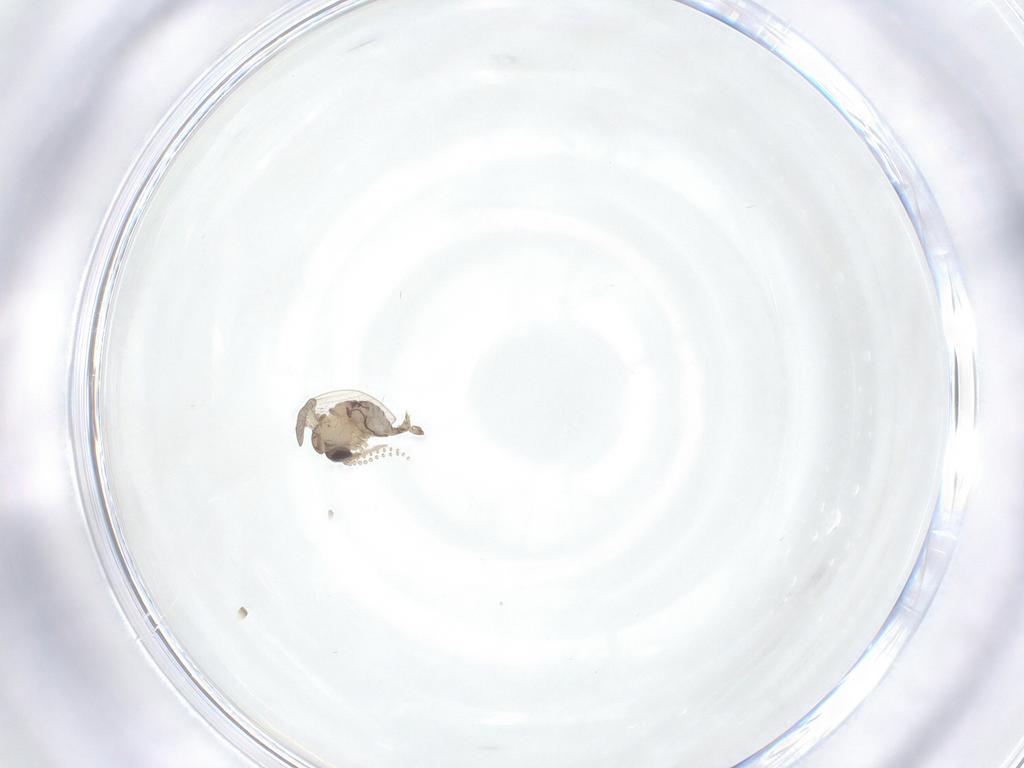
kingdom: Animalia
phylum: Arthropoda
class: Insecta
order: Diptera
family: Psychodidae
